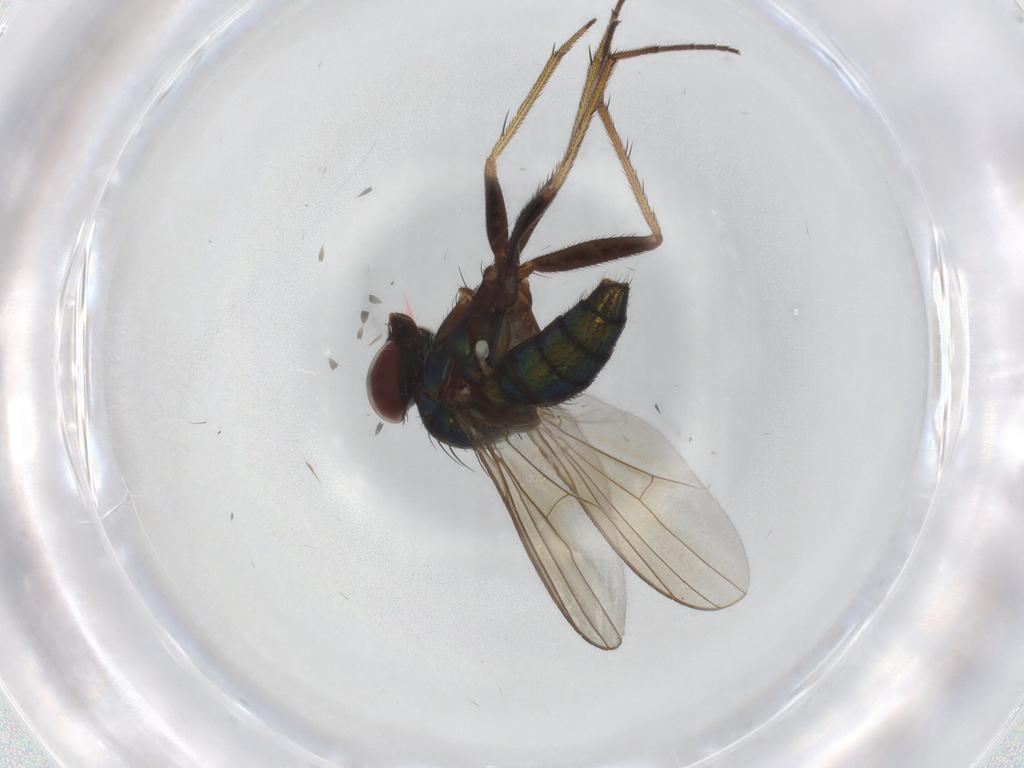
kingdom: Animalia
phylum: Arthropoda
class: Insecta
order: Diptera
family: Dolichopodidae
